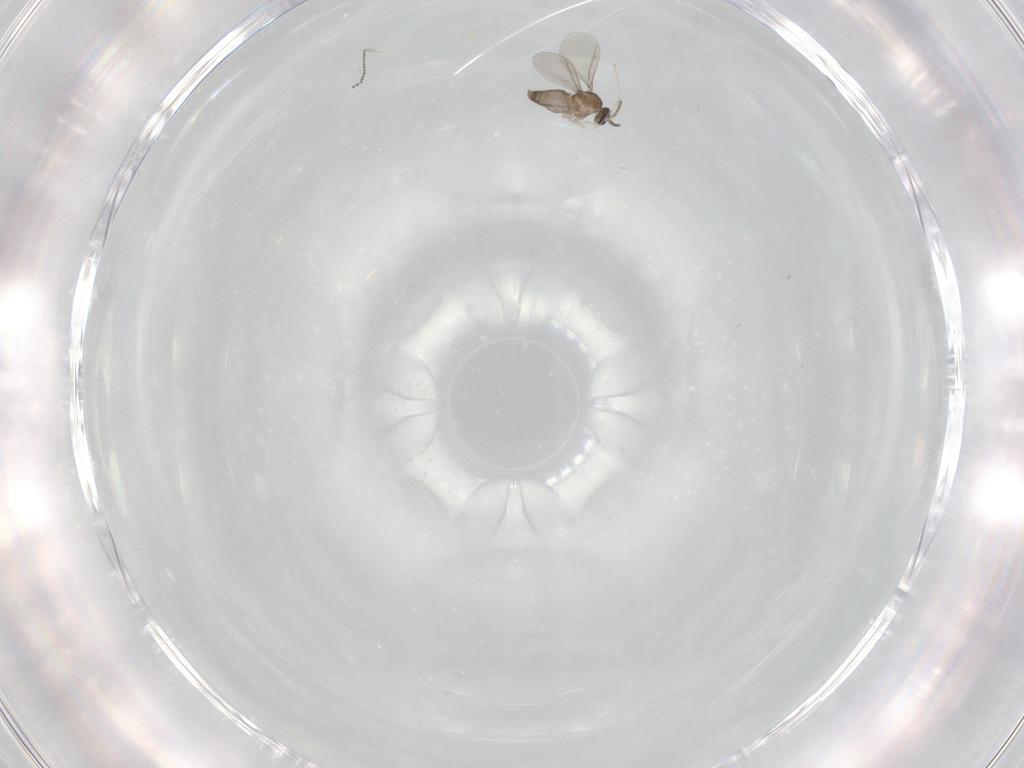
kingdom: Animalia
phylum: Arthropoda
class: Insecta
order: Diptera
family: Cecidomyiidae
